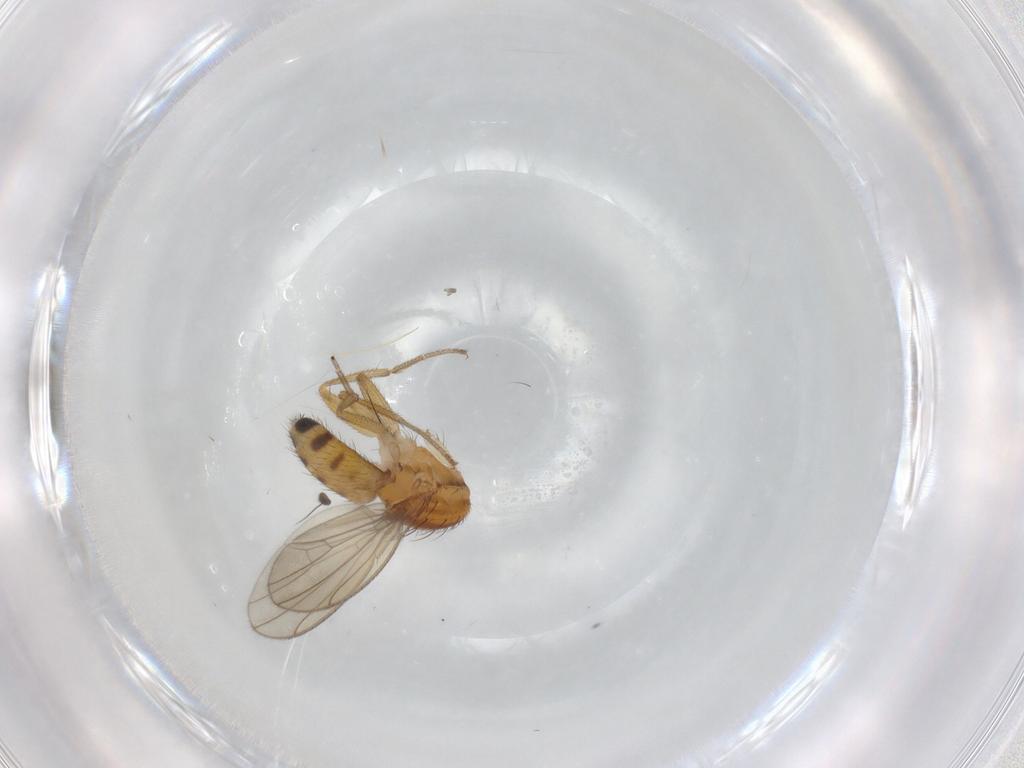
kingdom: Animalia
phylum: Arthropoda
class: Insecta
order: Diptera
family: Drosophilidae
